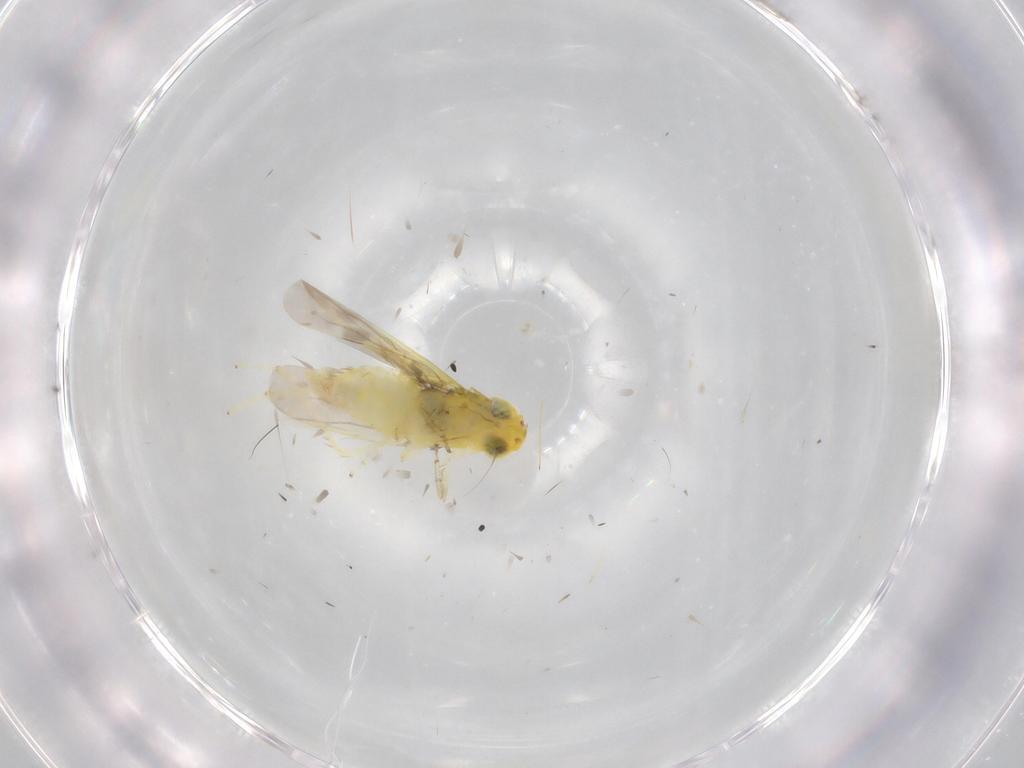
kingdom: Animalia
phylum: Arthropoda
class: Insecta
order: Hemiptera
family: Cicadellidae
